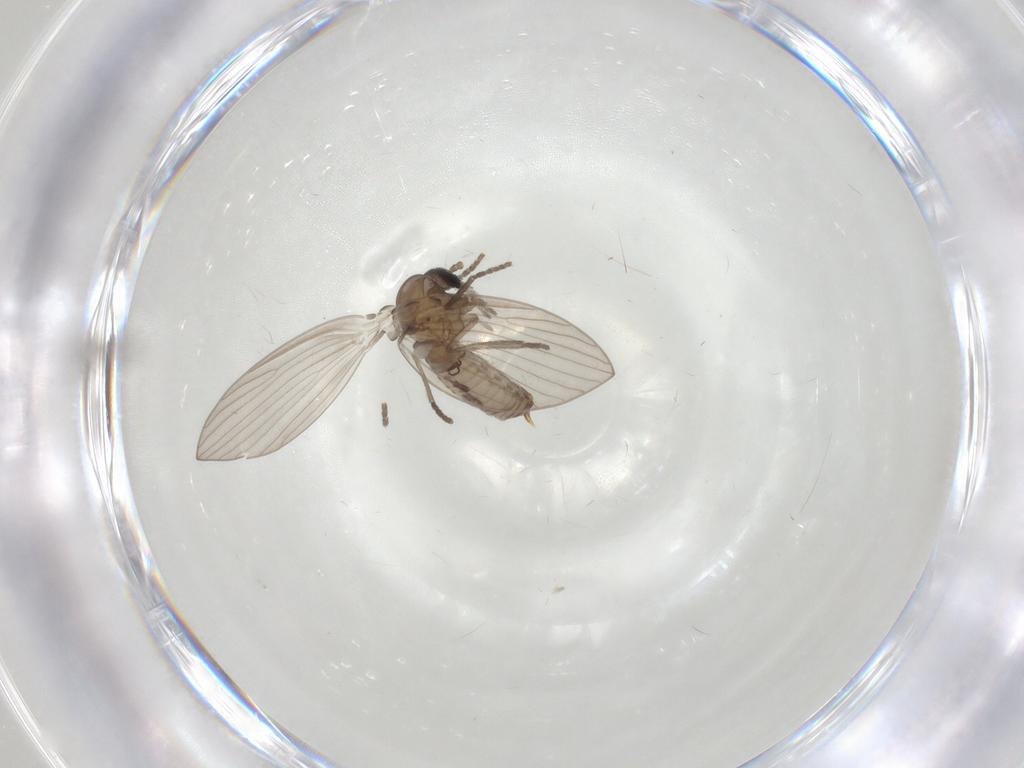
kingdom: Animalia
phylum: Arthropoda
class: Insecta
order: Diptera
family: Psychodidae
